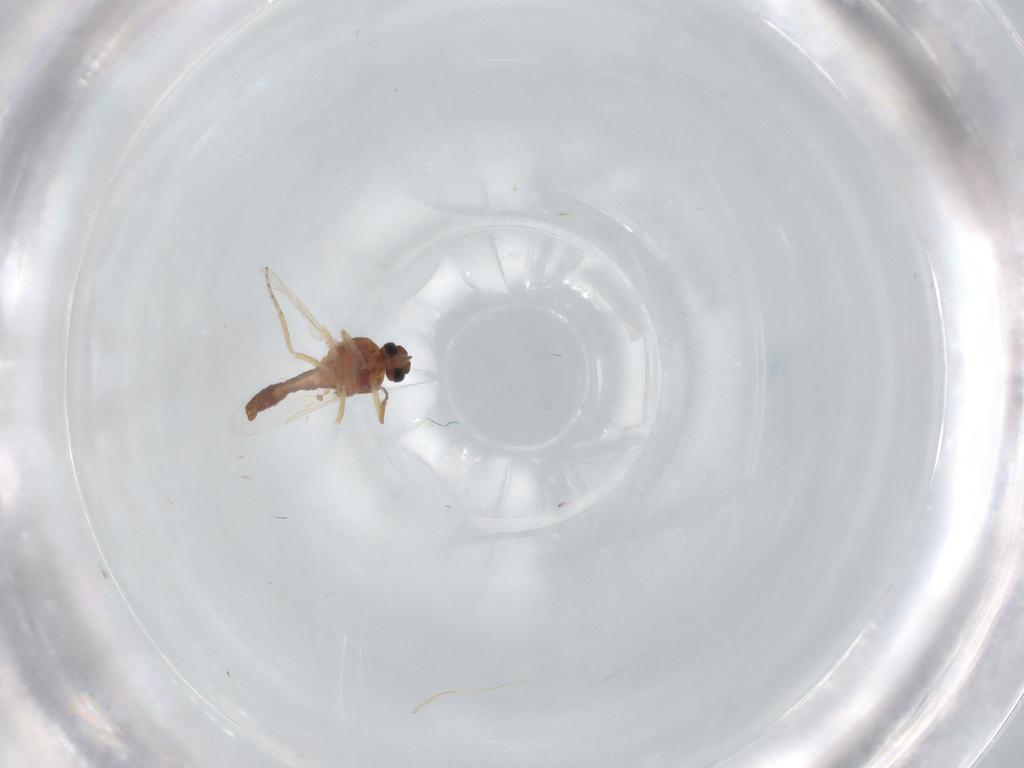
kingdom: Animalia
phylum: Arthropoda
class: Insecta
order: Diptera
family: Ceratopogonidae
